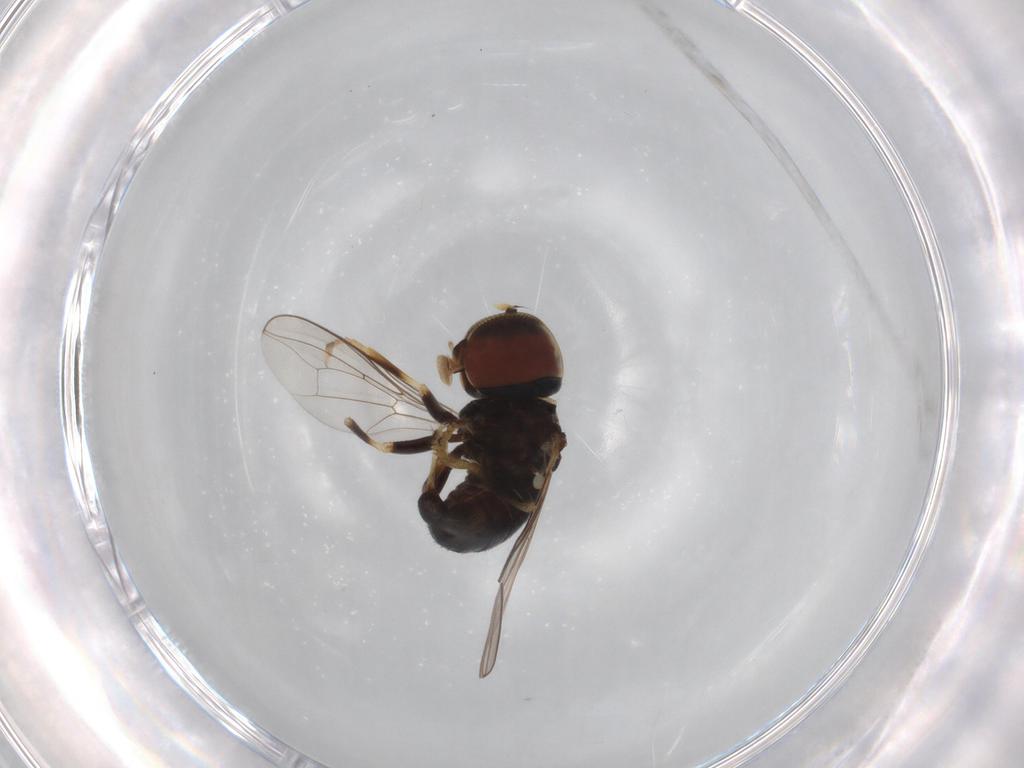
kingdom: Animalia
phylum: Arthropoda
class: Insecta
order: Diptera
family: Pipunculidae
